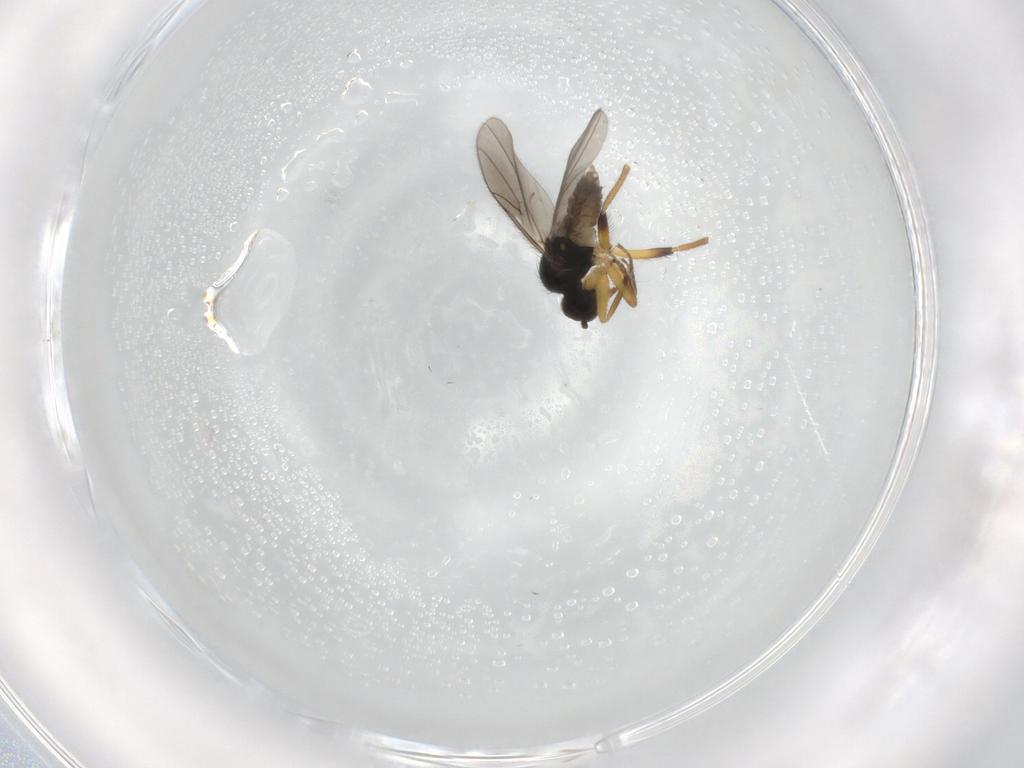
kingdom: Animalia
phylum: Arthropoda
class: Insecta
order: Diptera
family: Hybotidae
